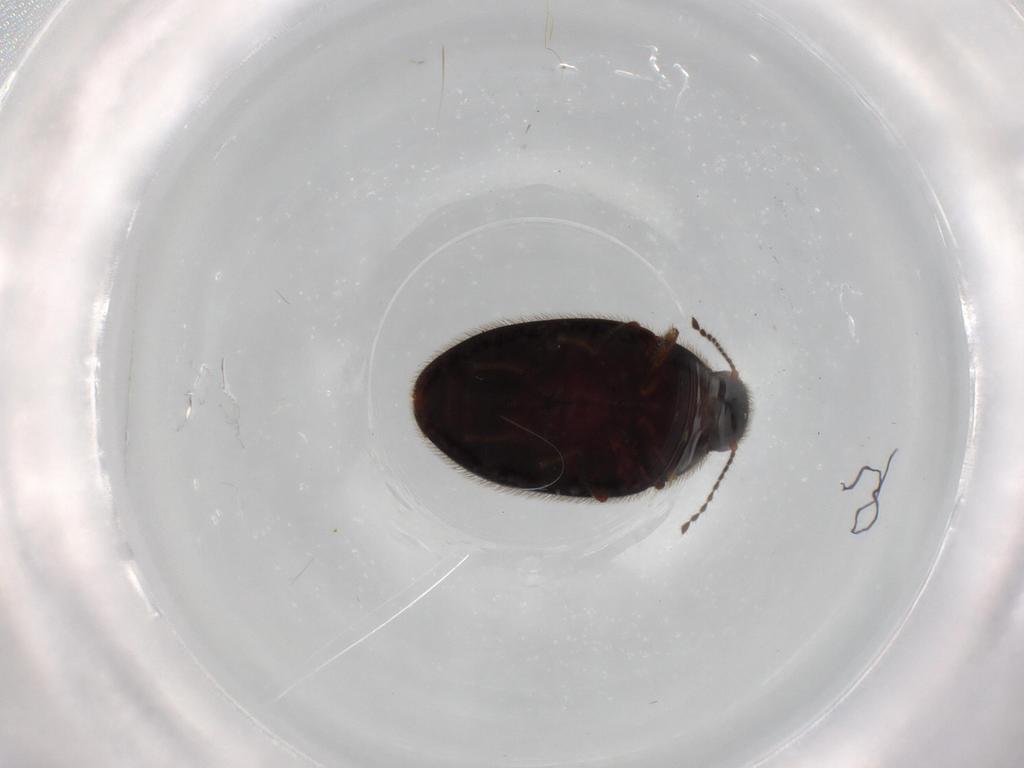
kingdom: Animalia
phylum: Arthropoda
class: Insecta
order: Coleoptera
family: Limnichidae
